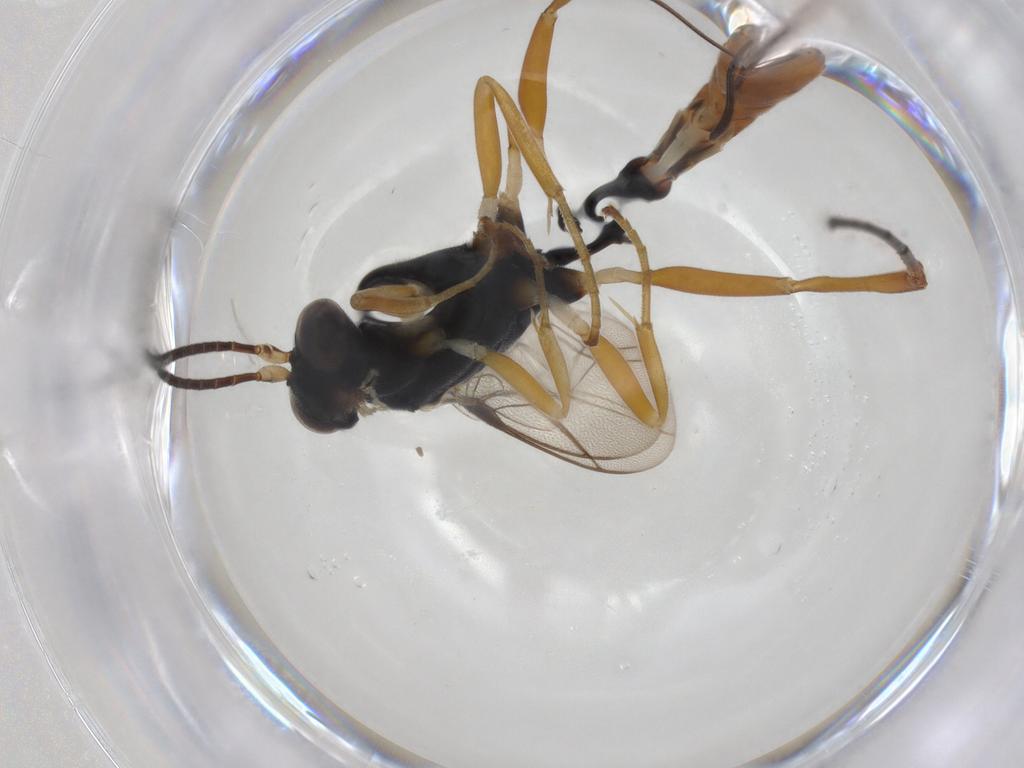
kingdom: Animalia
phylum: Arthropoda
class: Insecta
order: Hymenoptera
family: Ichneumonidae
